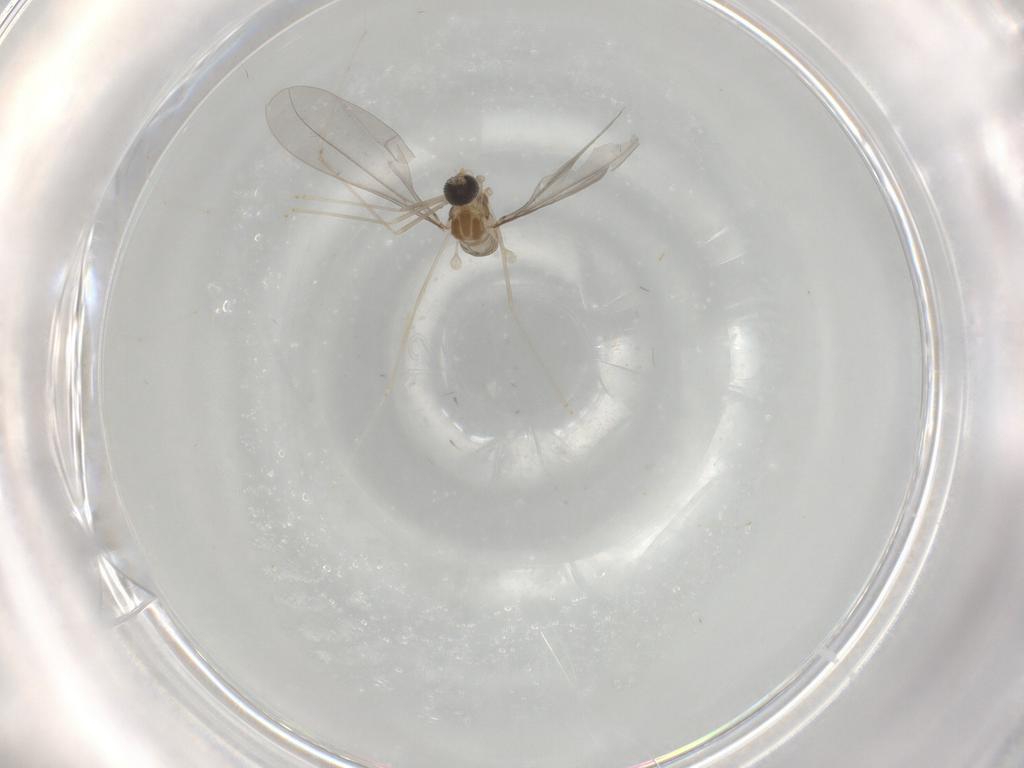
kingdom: Animalia
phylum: Arthropoda
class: Insecta
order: Diptera
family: Cecidomyiidae
